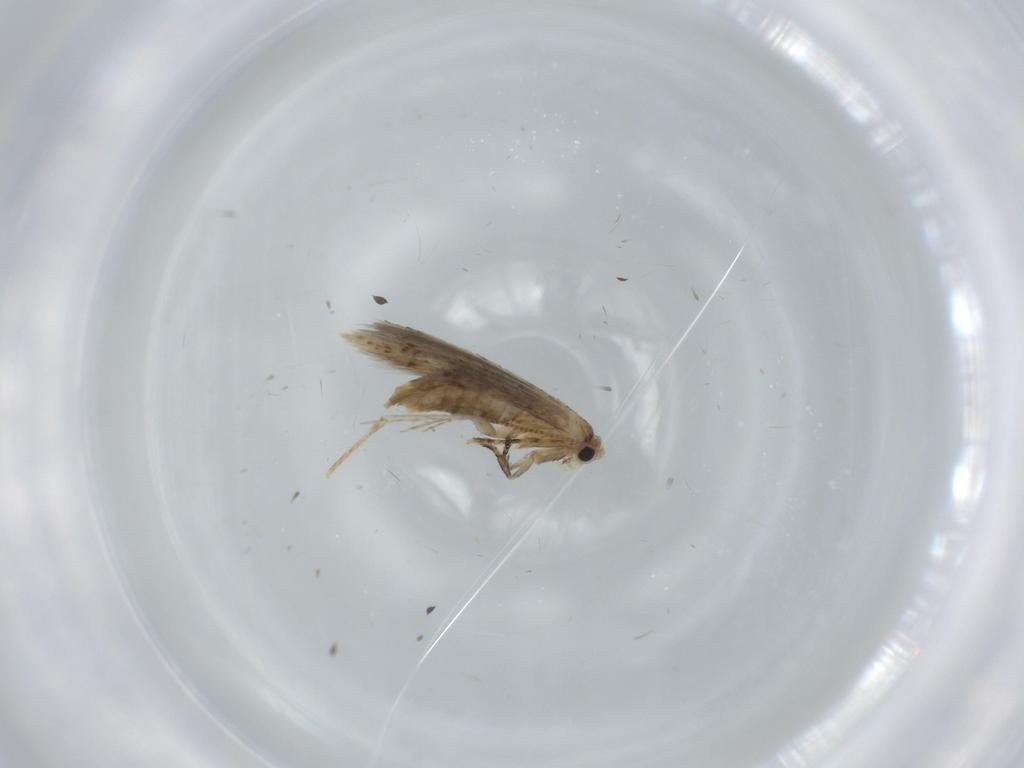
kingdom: Animalia
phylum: Arthropoda
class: Insecta
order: Lepidoptera
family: Tineidae
